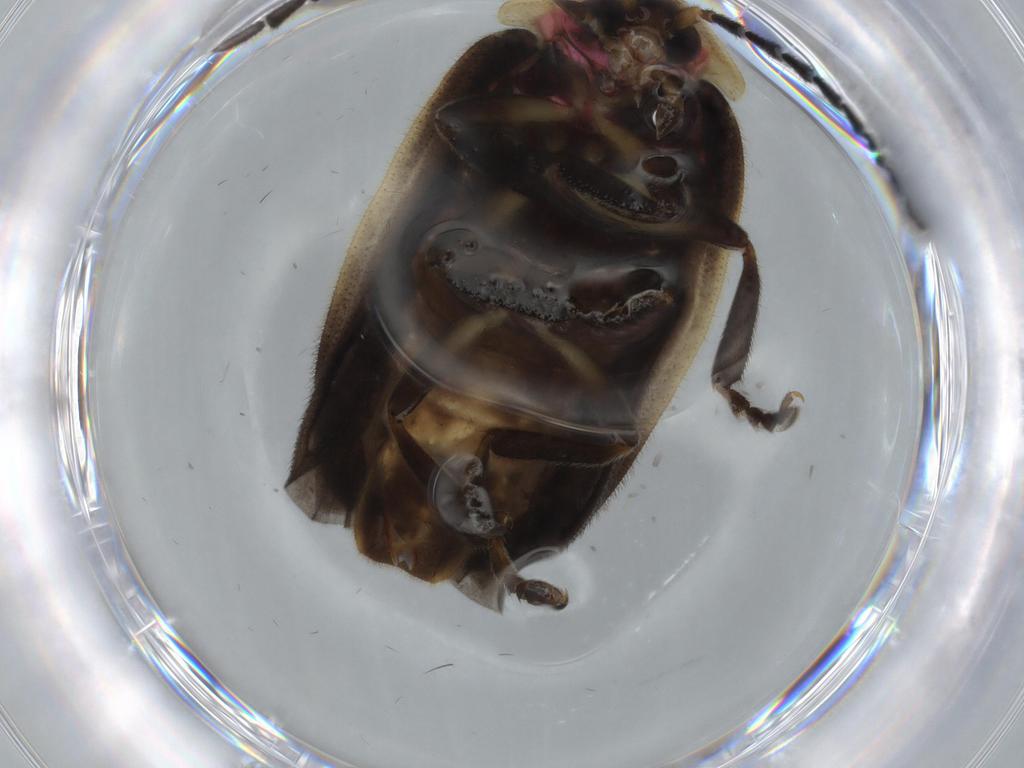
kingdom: Animalia
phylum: Arthropoda
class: Insecta
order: Coleoptera
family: Lampyridae
